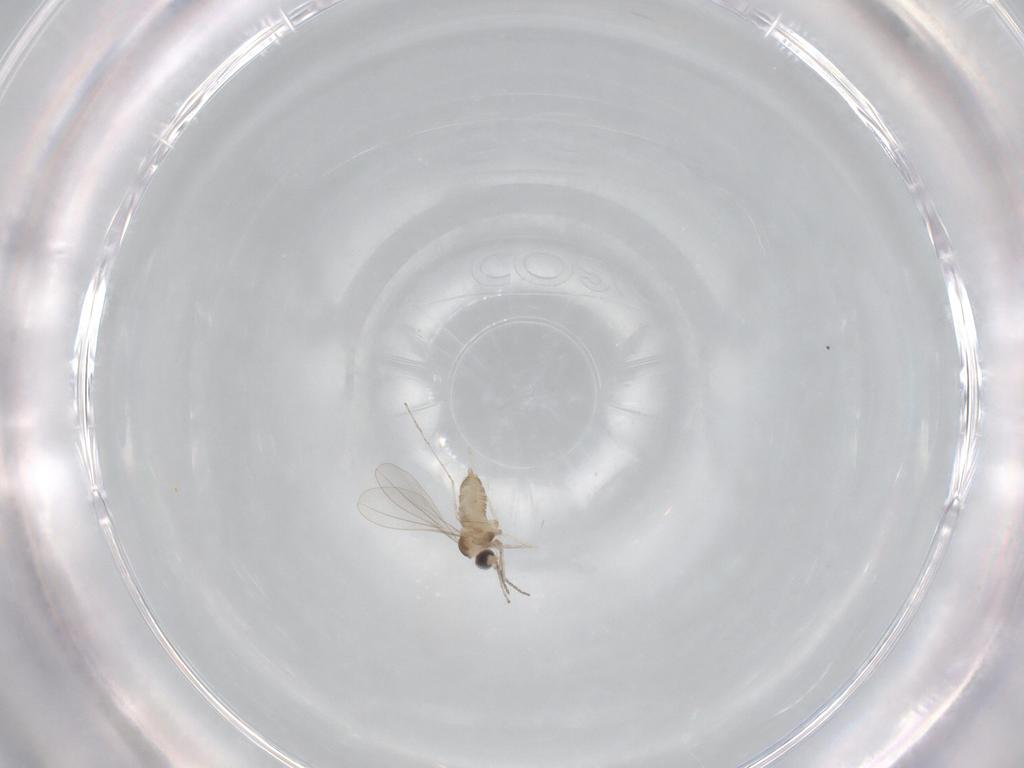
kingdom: Animalia
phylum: Arthropoda
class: Insecta
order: Diptera
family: Cecidomyiidae
